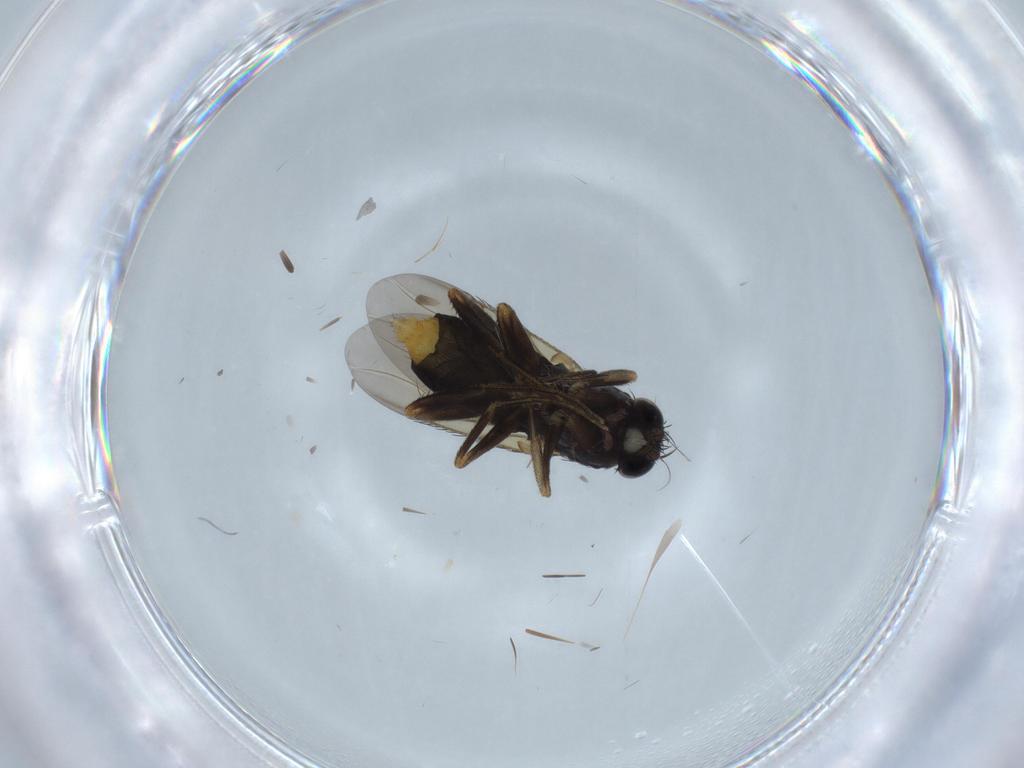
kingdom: Animalia
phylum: Arthropoda
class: Insecta
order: Diptera
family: Phoridae
